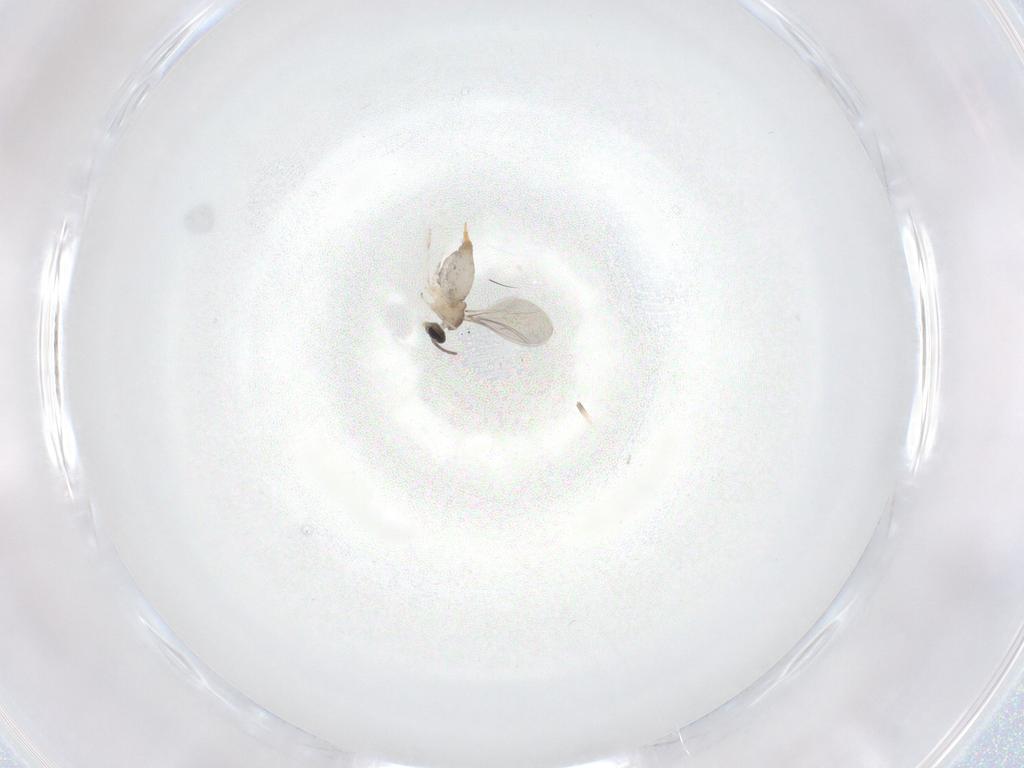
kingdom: Animalia
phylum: Arthropoda
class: Insecta
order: Diptera
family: Cecidomyiidae
